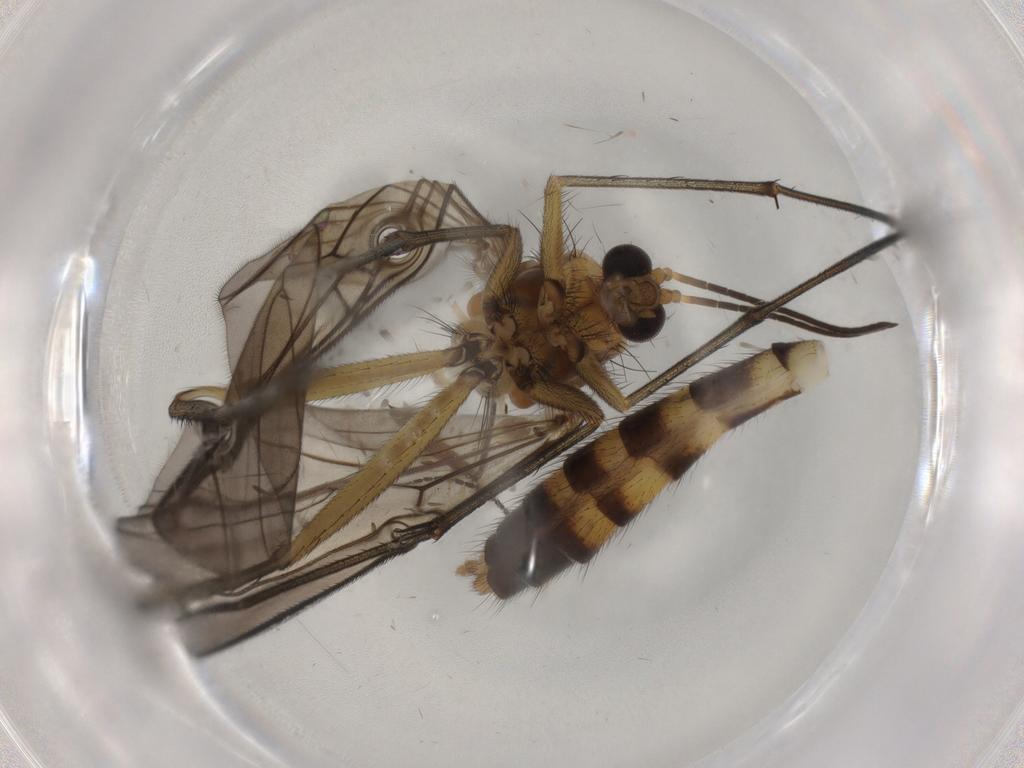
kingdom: Animalia
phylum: Arthropoda
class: Insecta
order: Diptera
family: Mycetophilidae
